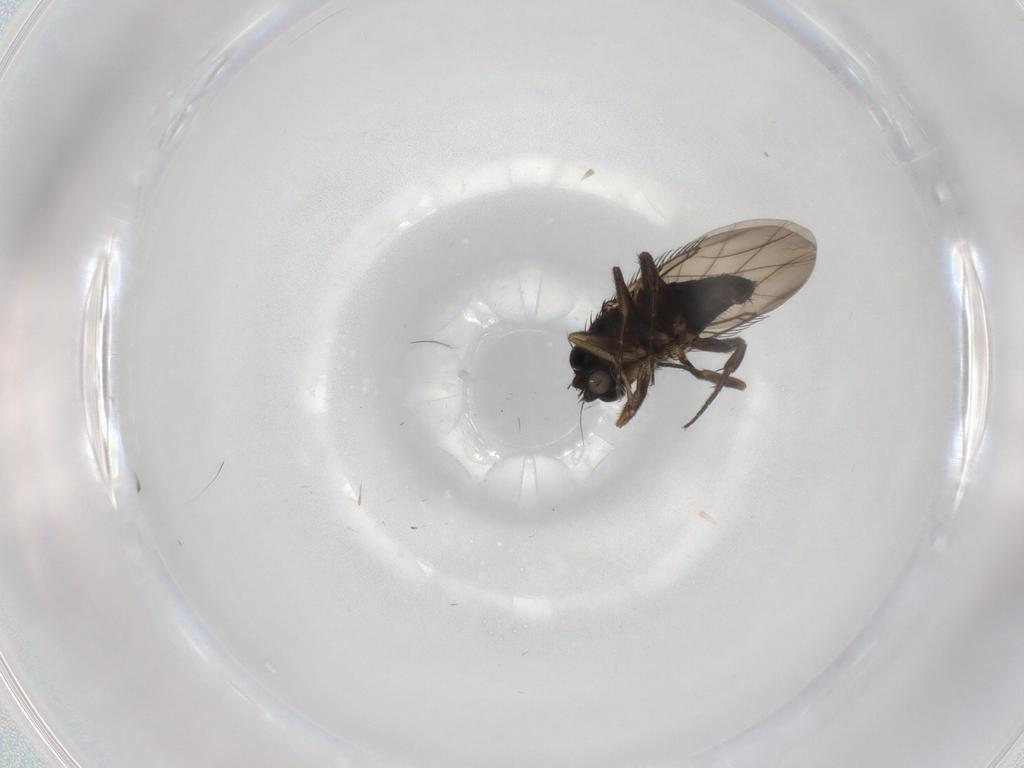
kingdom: Animalia
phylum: Arthropoda
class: Insecta
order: Diptera
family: Phoridae
